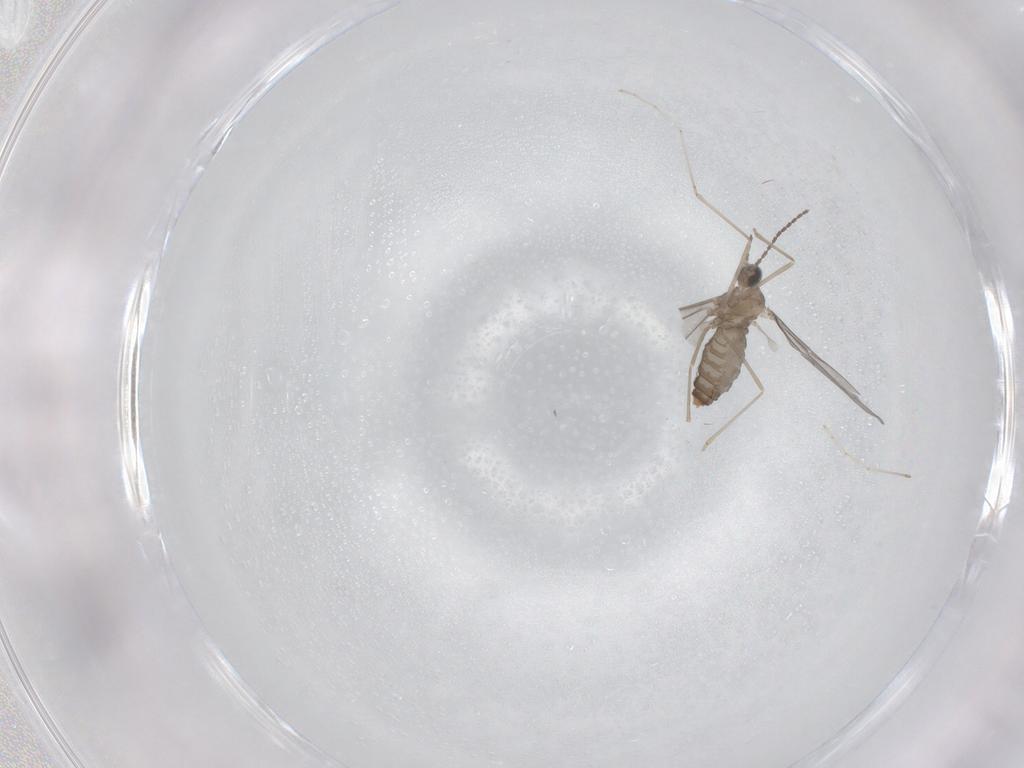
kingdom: Animalia
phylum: Arthropoda
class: Insecta
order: Diptera
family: Cecidomyiidae
